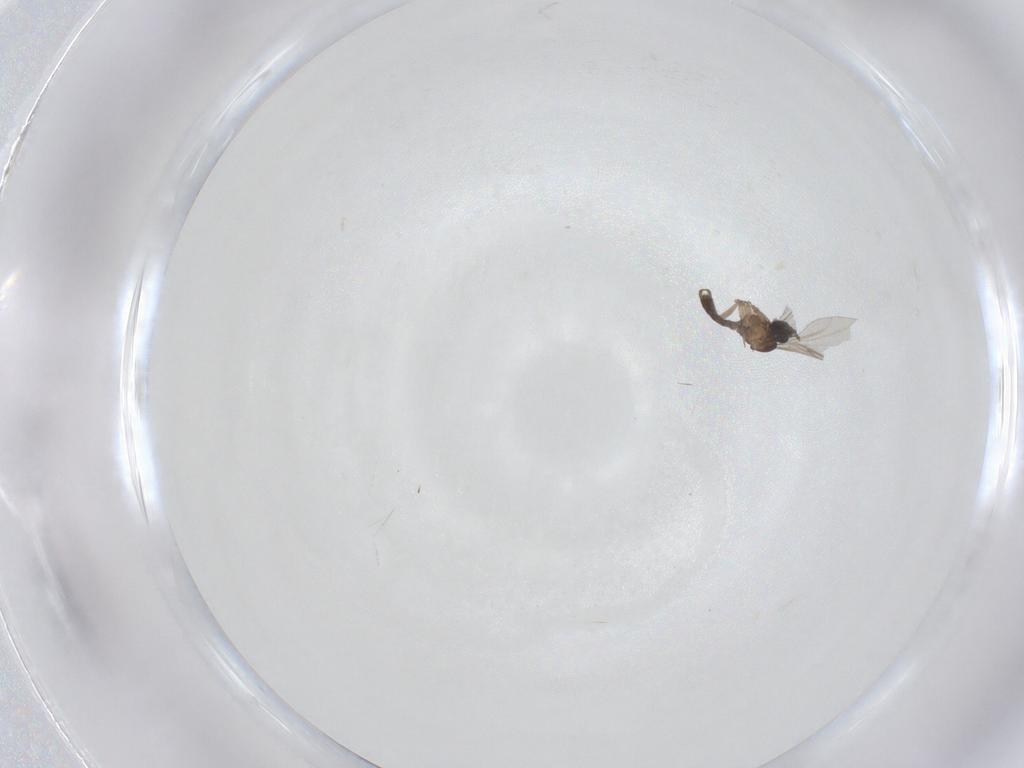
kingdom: Animalia
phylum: Arthropoda
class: Insecta
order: Diptera
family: Sciaridae
